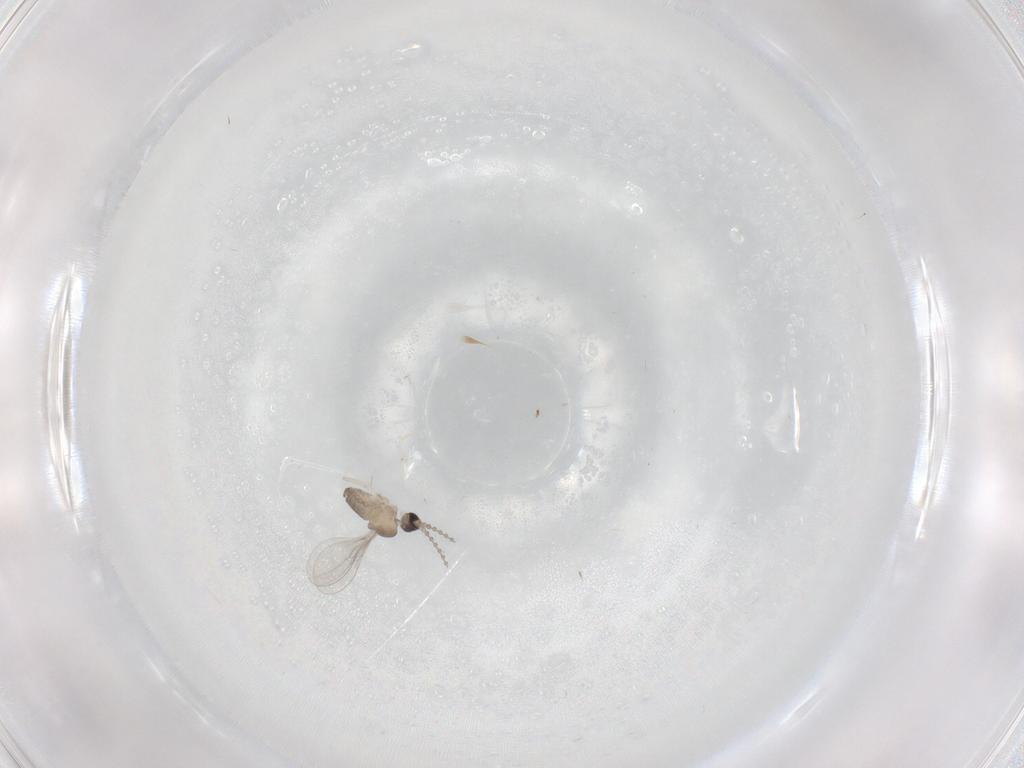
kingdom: Animalia
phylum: Arthropoda
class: Insecta
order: Diptera
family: Cecidomyiidae
